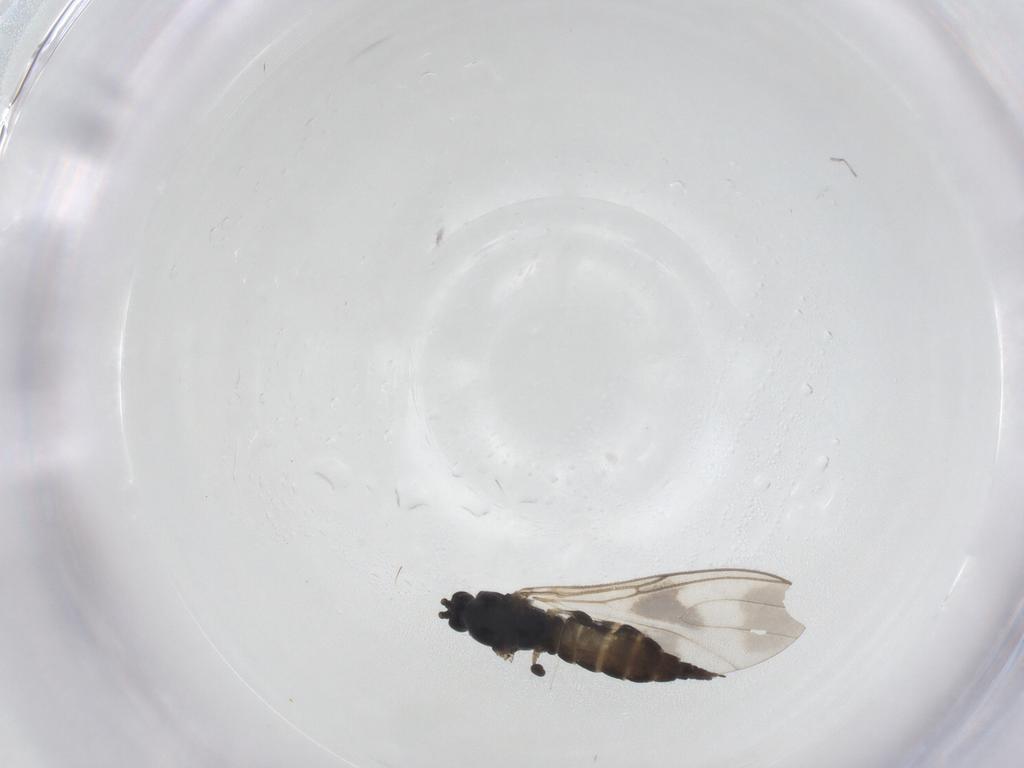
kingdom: Animalia
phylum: Arthropoda
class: Insecta
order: Diptera
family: Sciaridae
